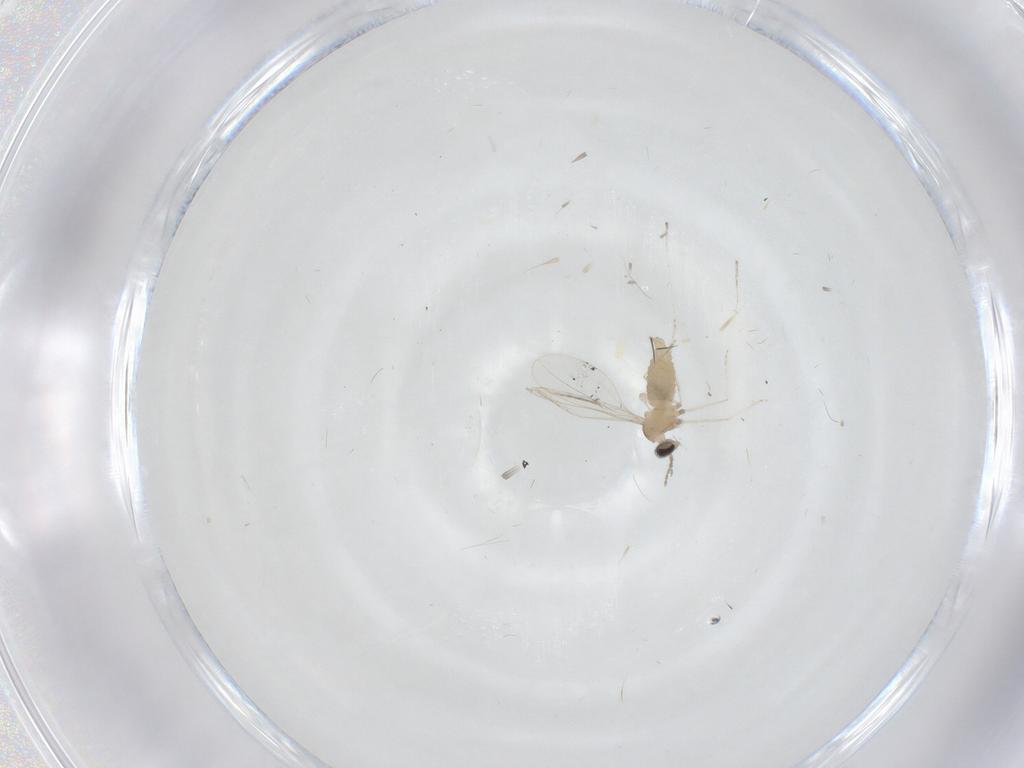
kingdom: Animalia
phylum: Arthropoda
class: Insecta
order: Diptera
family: Cecidomyiidae
